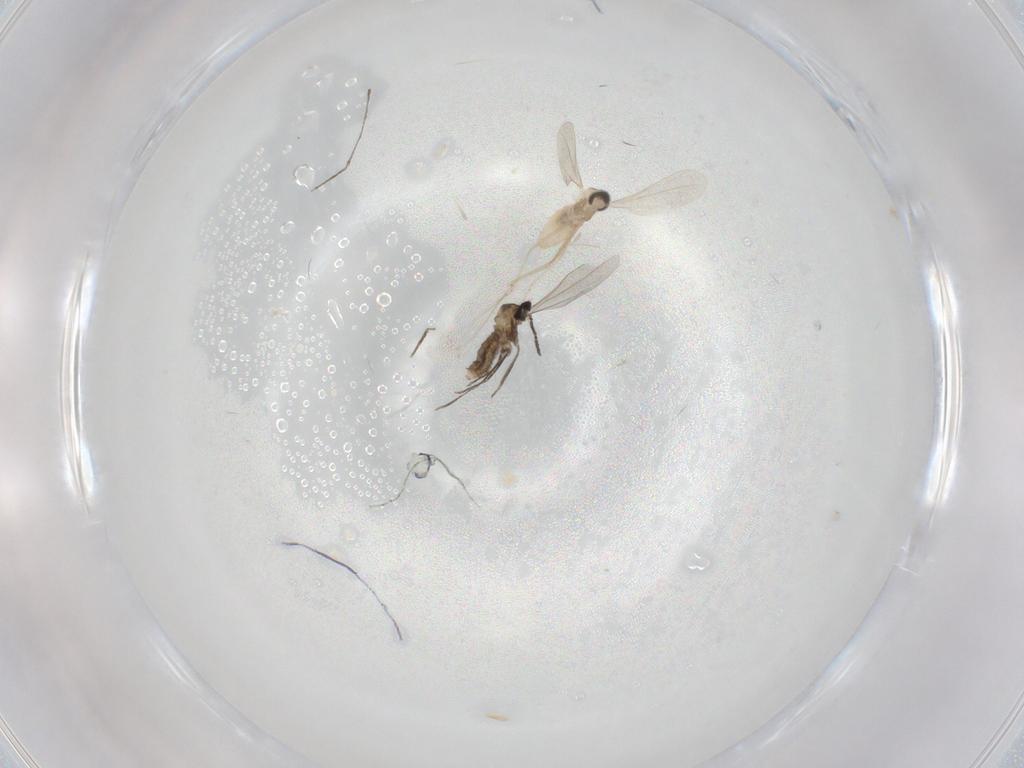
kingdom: Animalia
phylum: Arthropoda
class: Insecta
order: Diptera
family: Cecidomyiidae
